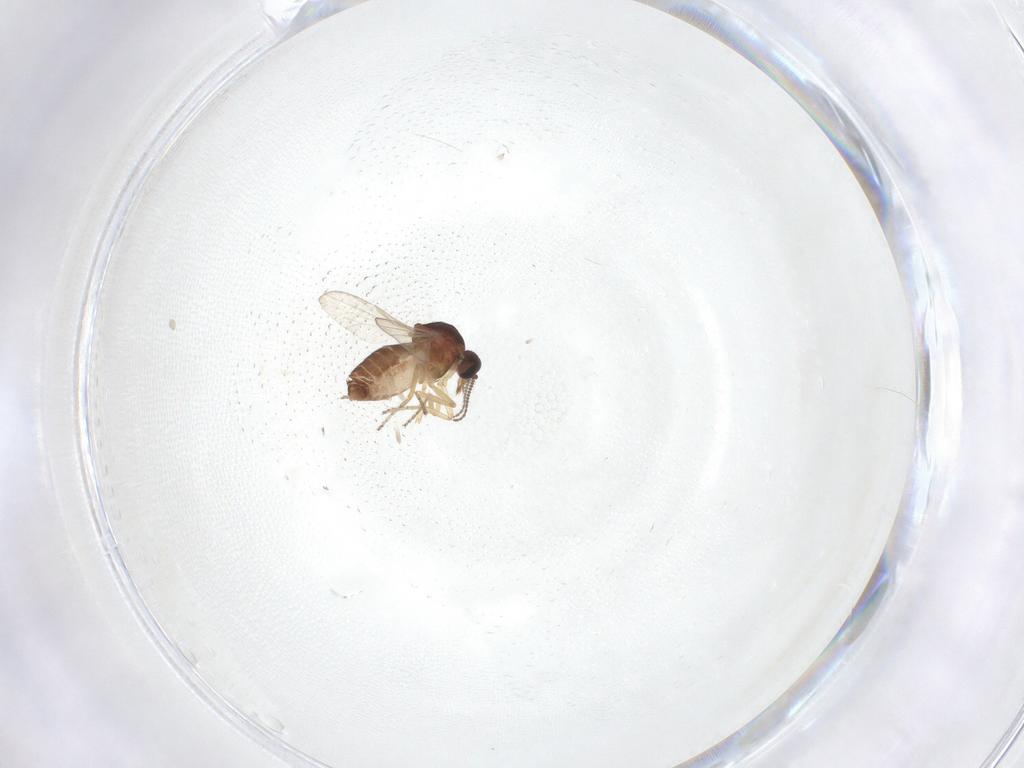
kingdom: Animalia
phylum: Arthropoda
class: Insecta
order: Diptera
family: Ceratopogonidae
